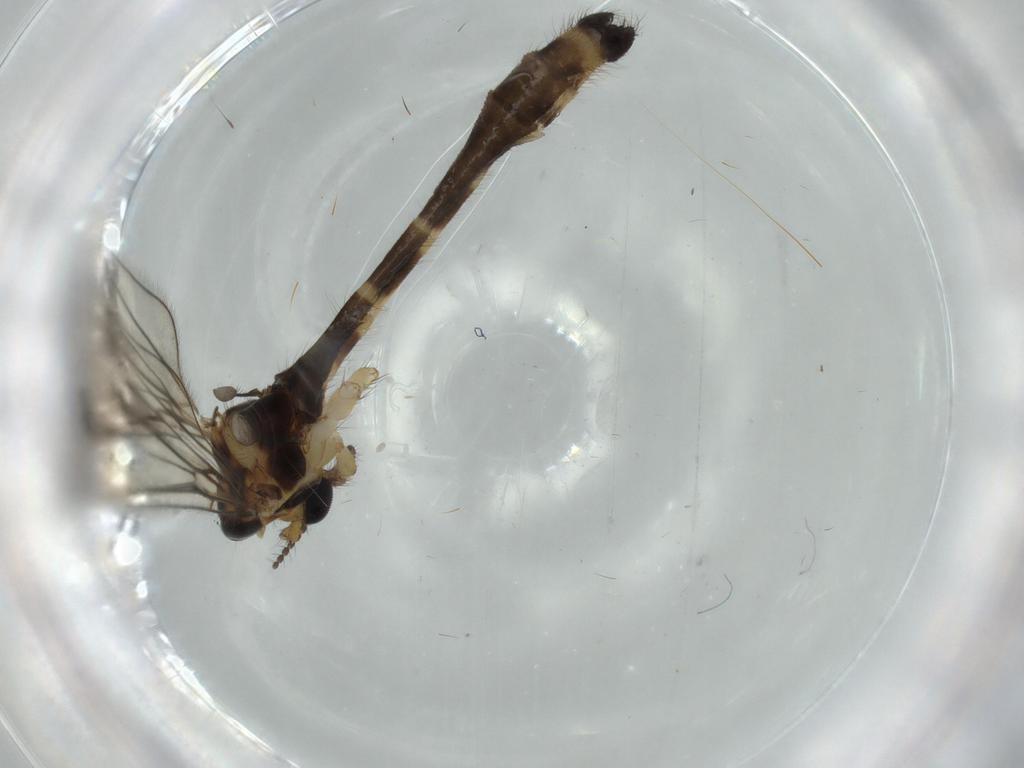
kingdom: Animalia
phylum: Arthropoda
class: Insecta
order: Diptera
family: Limoniidae
